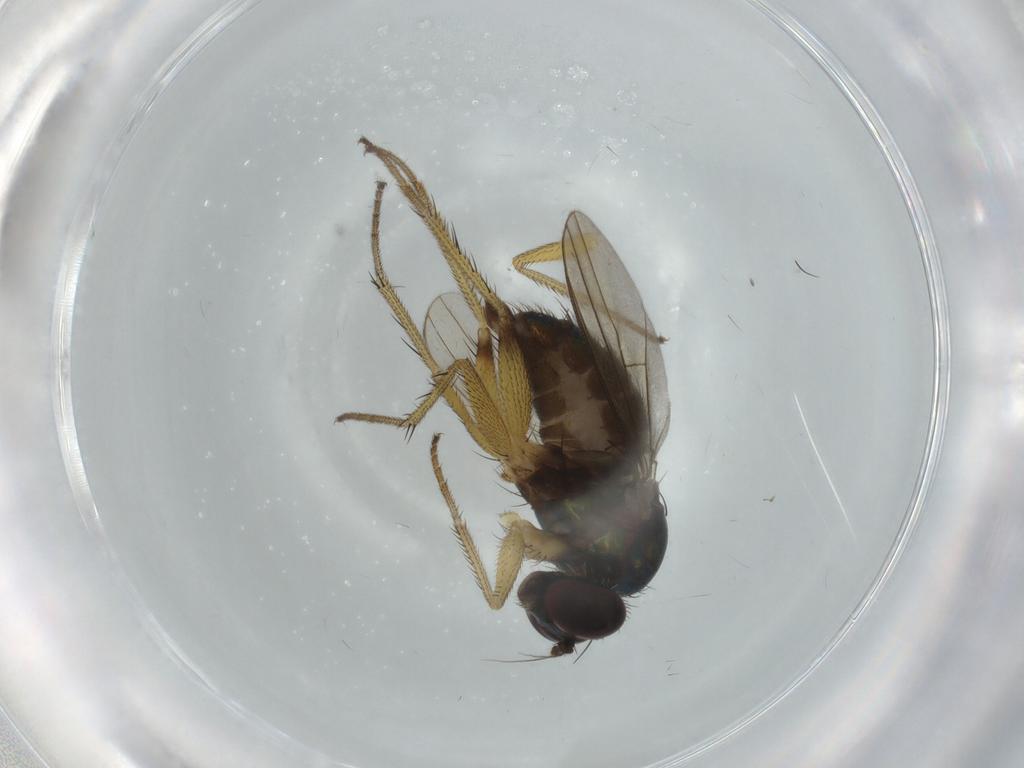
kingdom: Animalia
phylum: Arthropoda
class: Insecta
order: Diptera
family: Dolichopodidae
